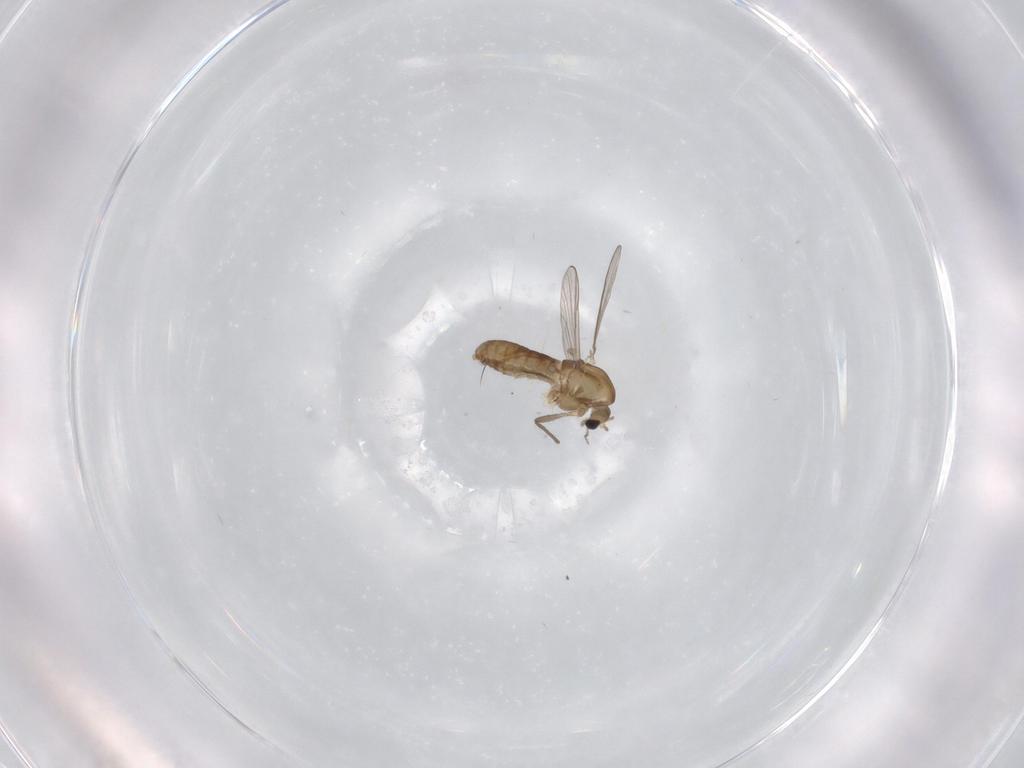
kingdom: Animalia
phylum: Arthropoda
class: Insecta
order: Diptera
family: Chironomidae
